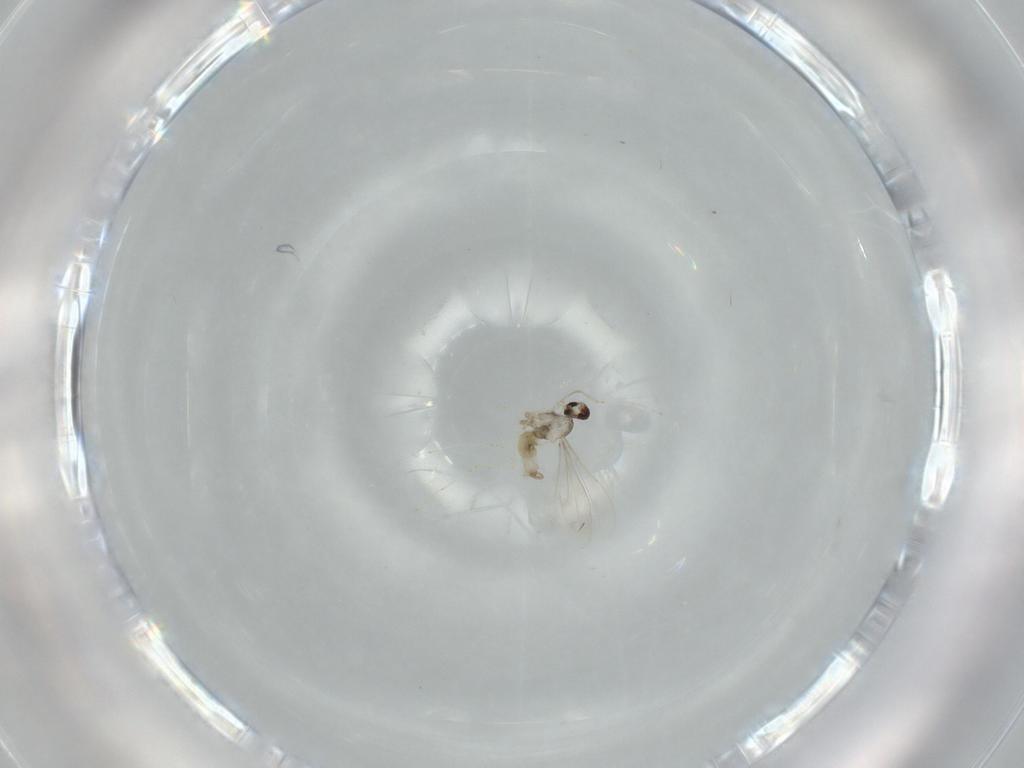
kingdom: Animalia
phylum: Arthropoda
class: Insecta
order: Diptera
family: Cecidomyiidae
